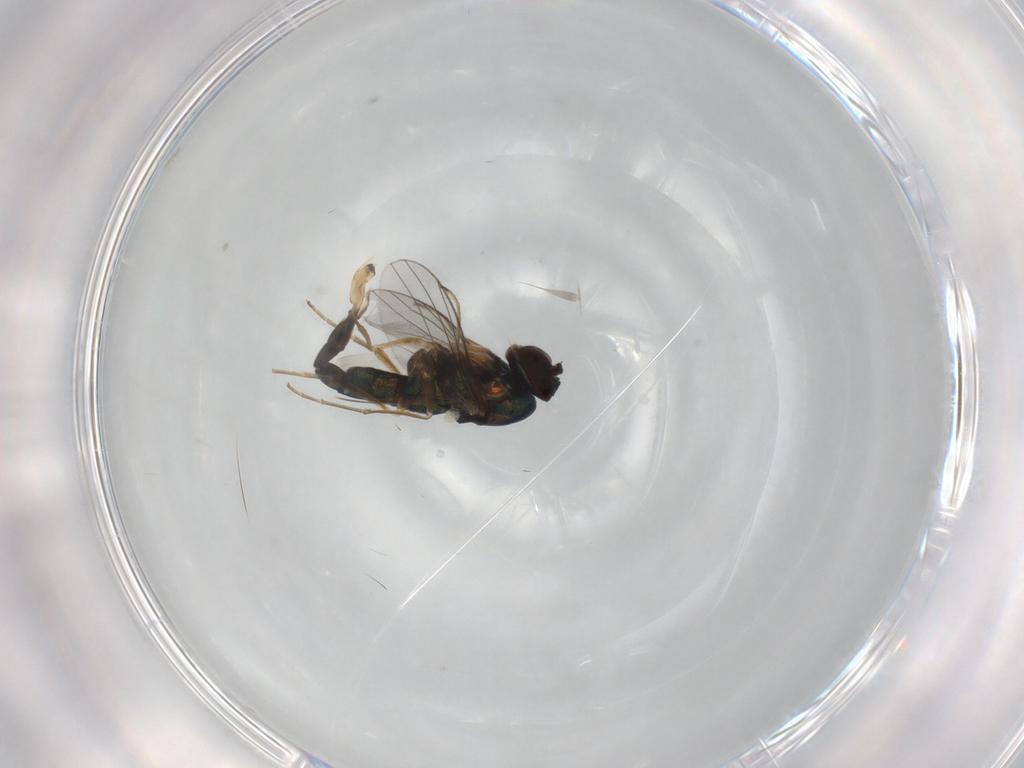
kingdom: Animalia
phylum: Arthropoda
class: Insecta
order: Diptera
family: Dolichopodidae
